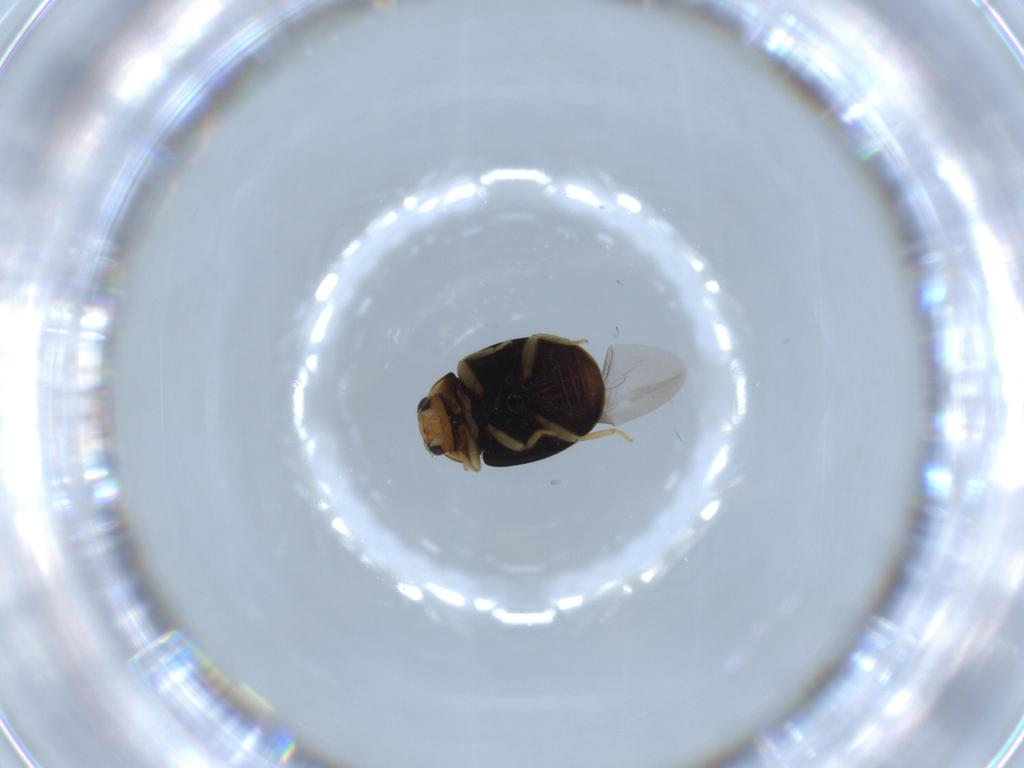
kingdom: Animalia
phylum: Arthropoda
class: Insecta
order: Coleoptera
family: Coccinellidae
